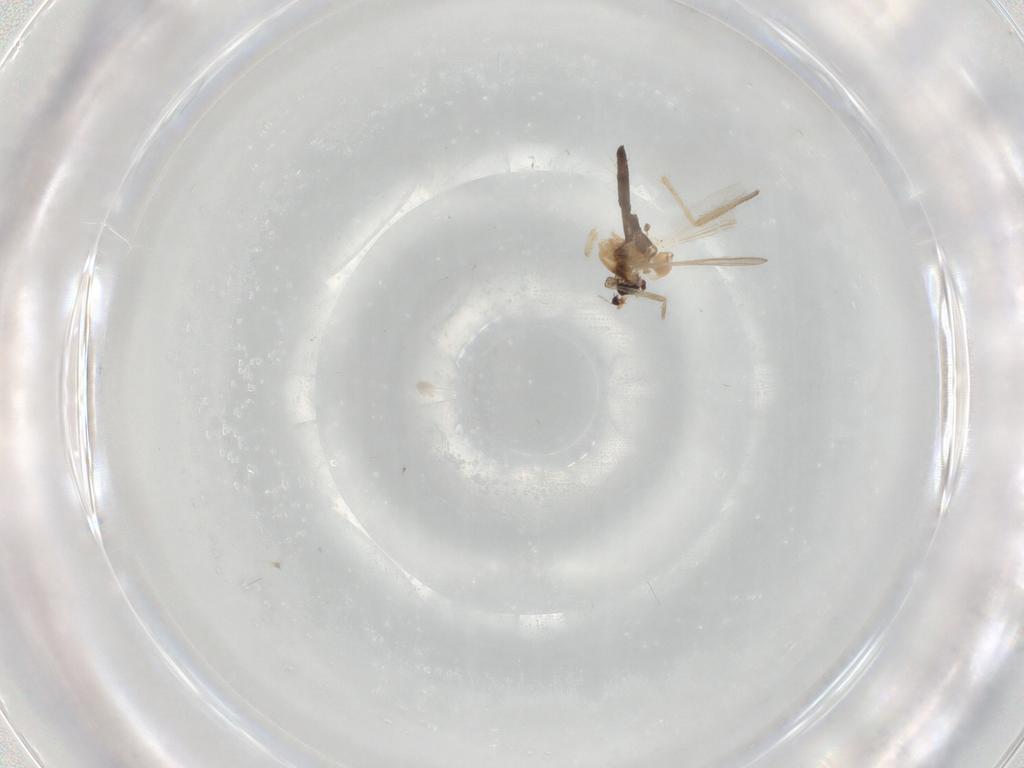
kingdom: Animalia
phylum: Arthropoda
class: Insecta
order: Diptera
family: Chironomidae
